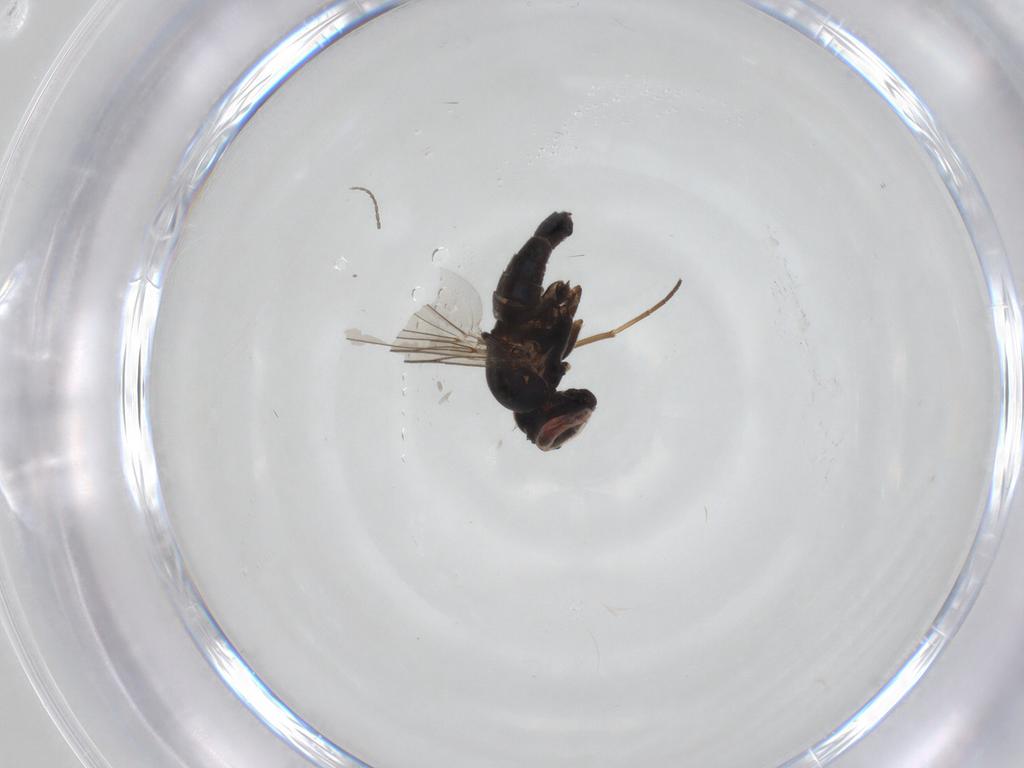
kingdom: Animalia
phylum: Arthropoda
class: Insecta
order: Diptera
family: Dolichopodidae
